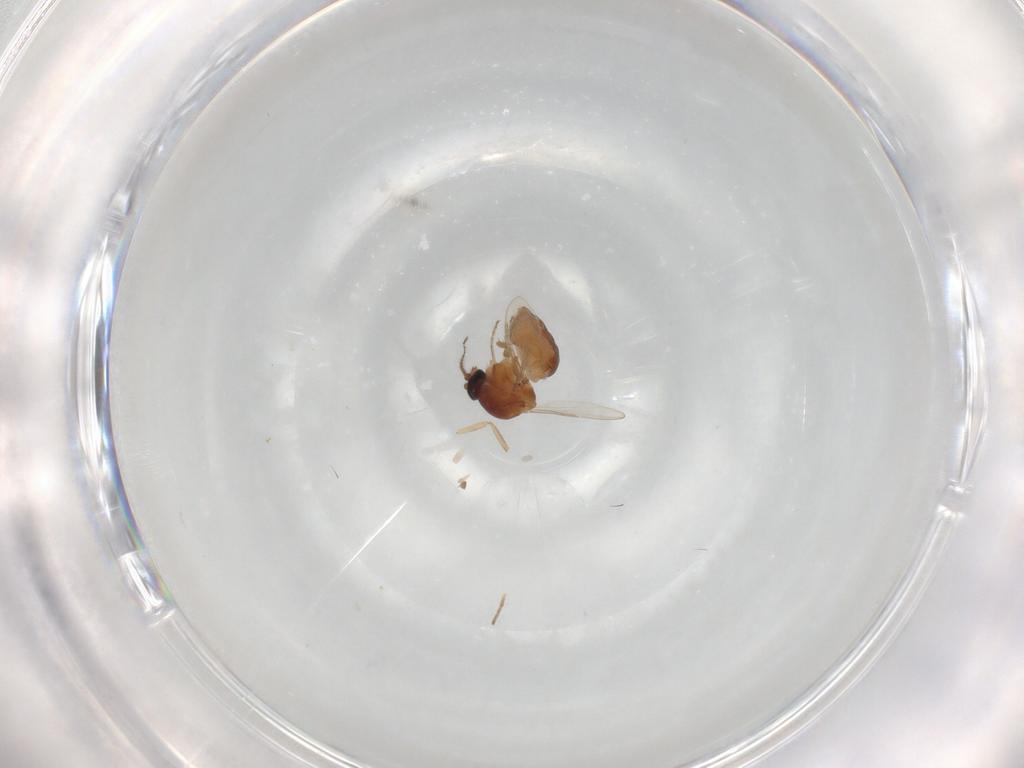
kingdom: Animalia
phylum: Arthropoda
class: Insecta
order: Diptera
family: Ceratopogonidae
